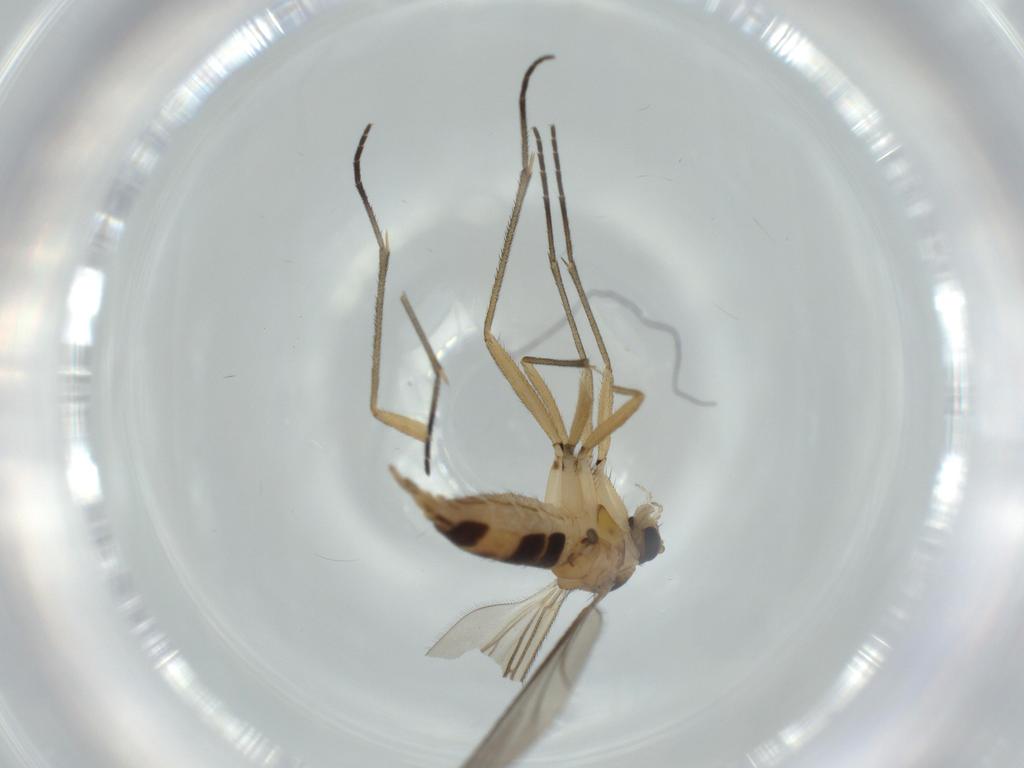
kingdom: Animalia
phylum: Arthropoda
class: Insecta
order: Diptera
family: Sciaridae
